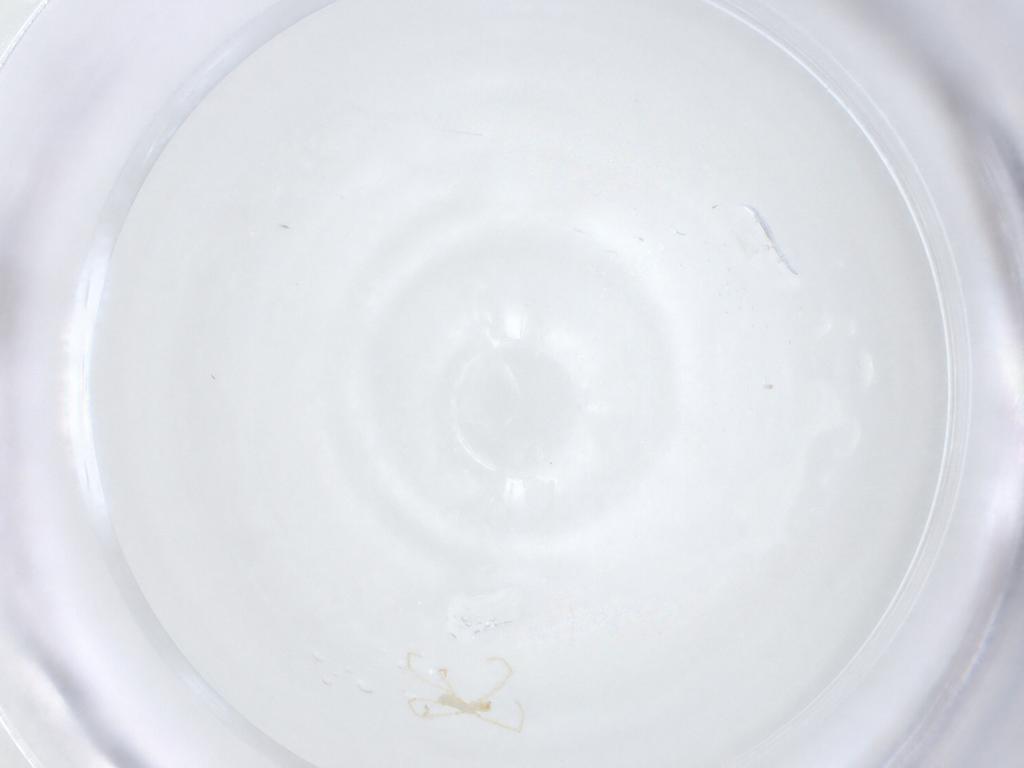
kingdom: Animalia
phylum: Arthropoda
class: Arachnida
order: Trombidiformes
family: Erythraeidae
